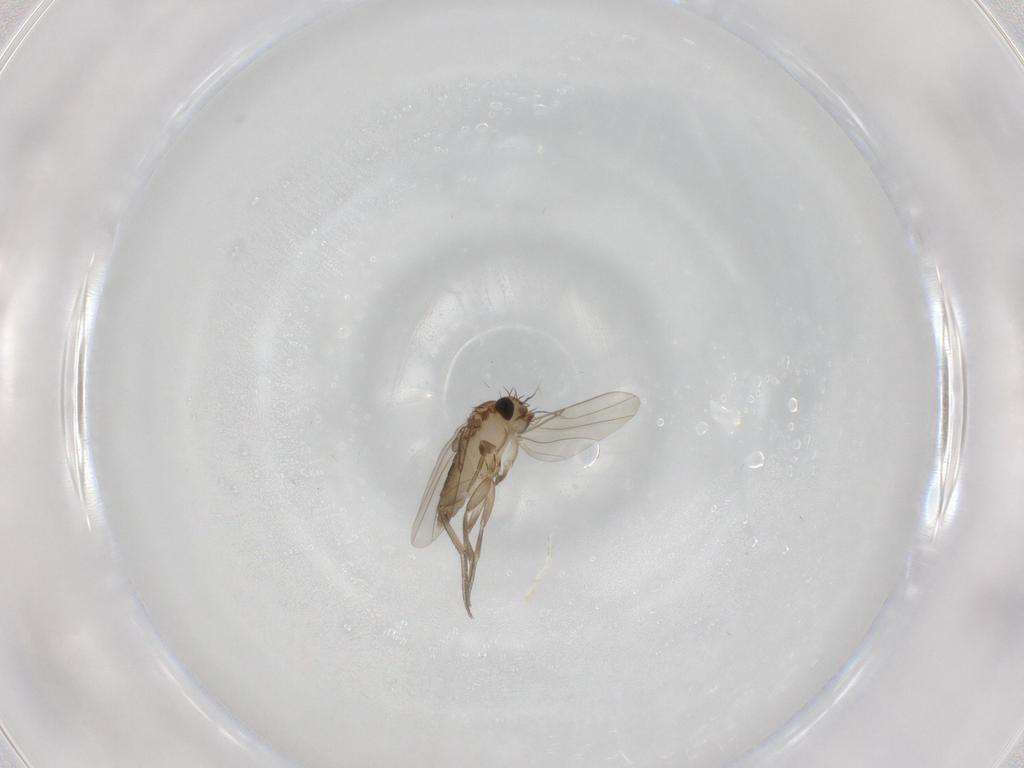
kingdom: Animalia
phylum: Arthropoda
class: Insecta
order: Diptera
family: Phoridae
